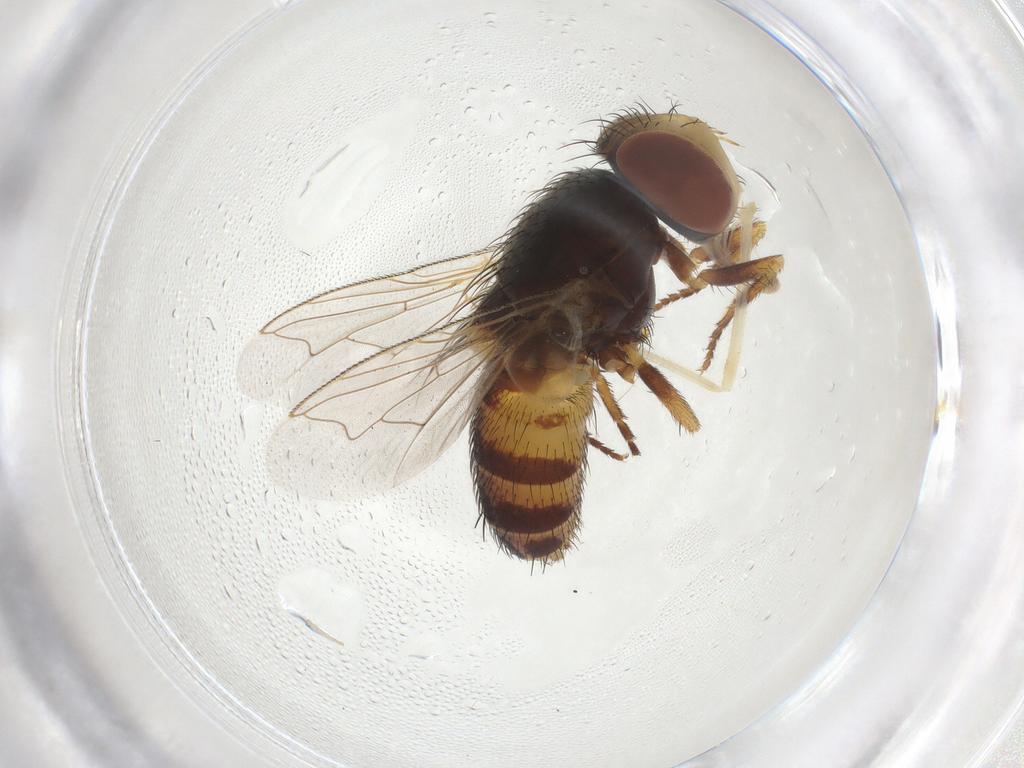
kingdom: Animalia
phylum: Arthropoda
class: Insecta
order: Diptera
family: Sarcophagidae
